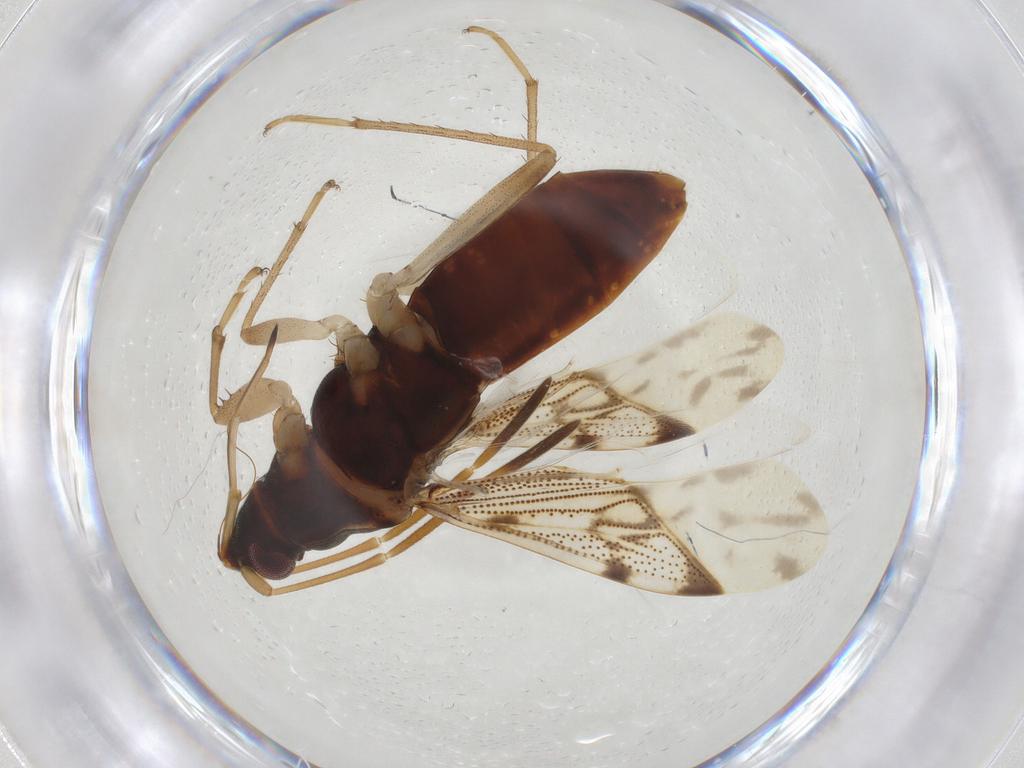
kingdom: Animalia
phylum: Arthropoda
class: Insecta
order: Hemiptera
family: Rhyparochromidae
